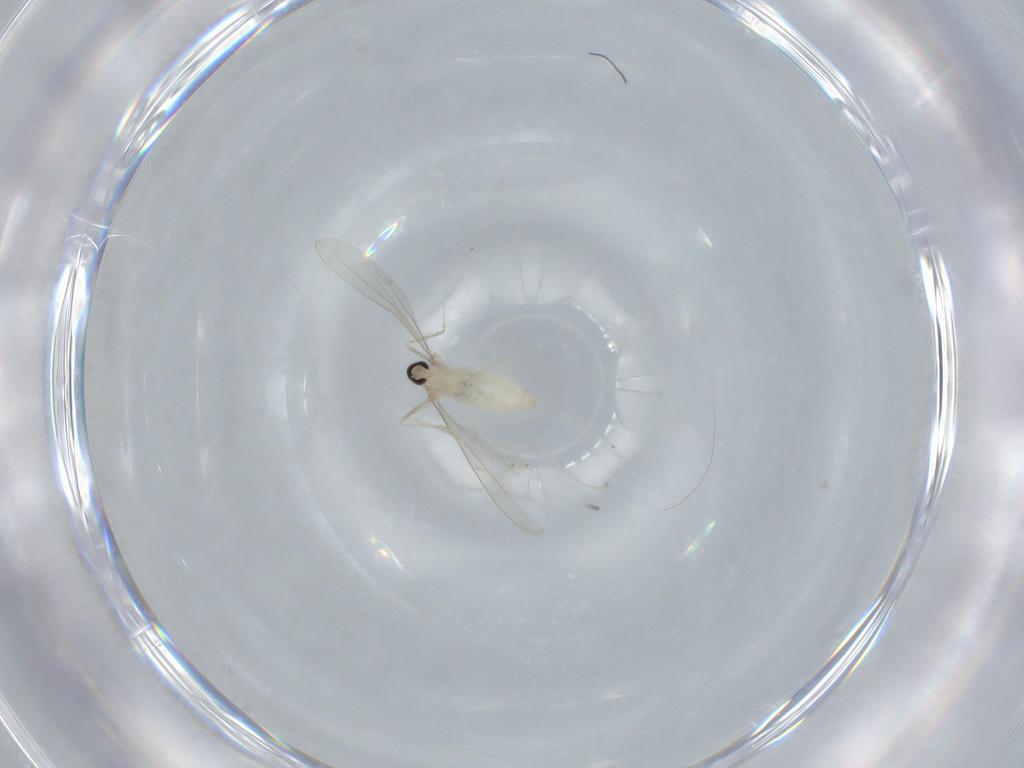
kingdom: Animalia
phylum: Arthropoda
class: Insecta
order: Diptera
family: Cecidomyiidae
